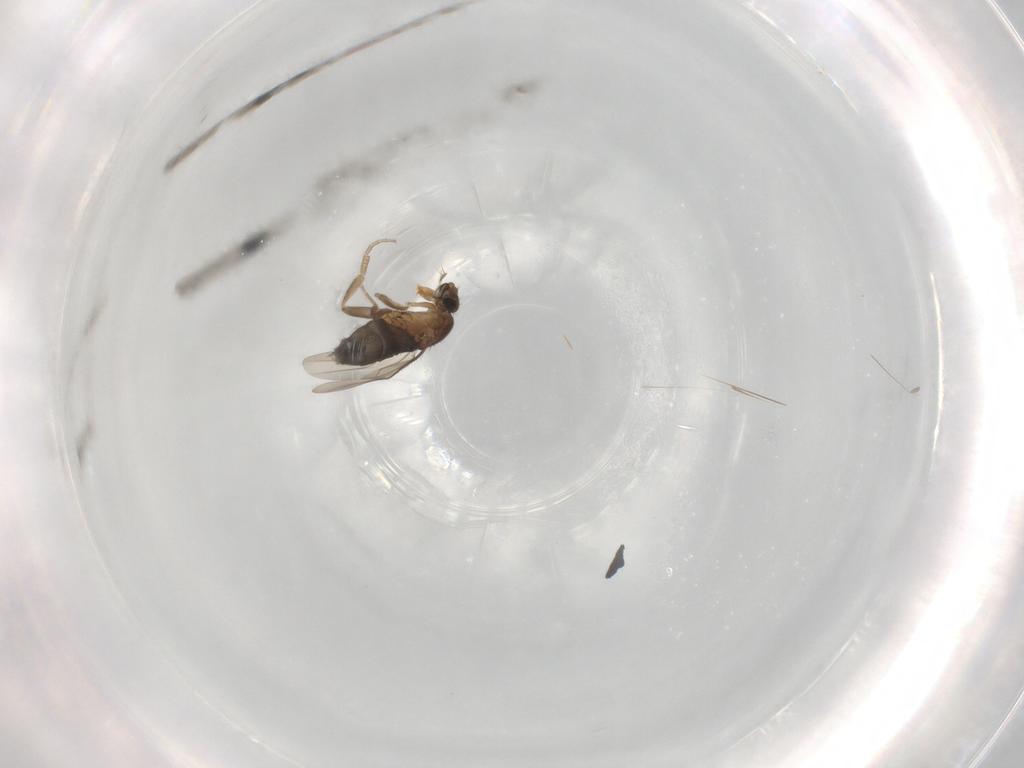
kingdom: Animalia
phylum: Arthropoda
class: Insecta
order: Diptera
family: Phoridae
